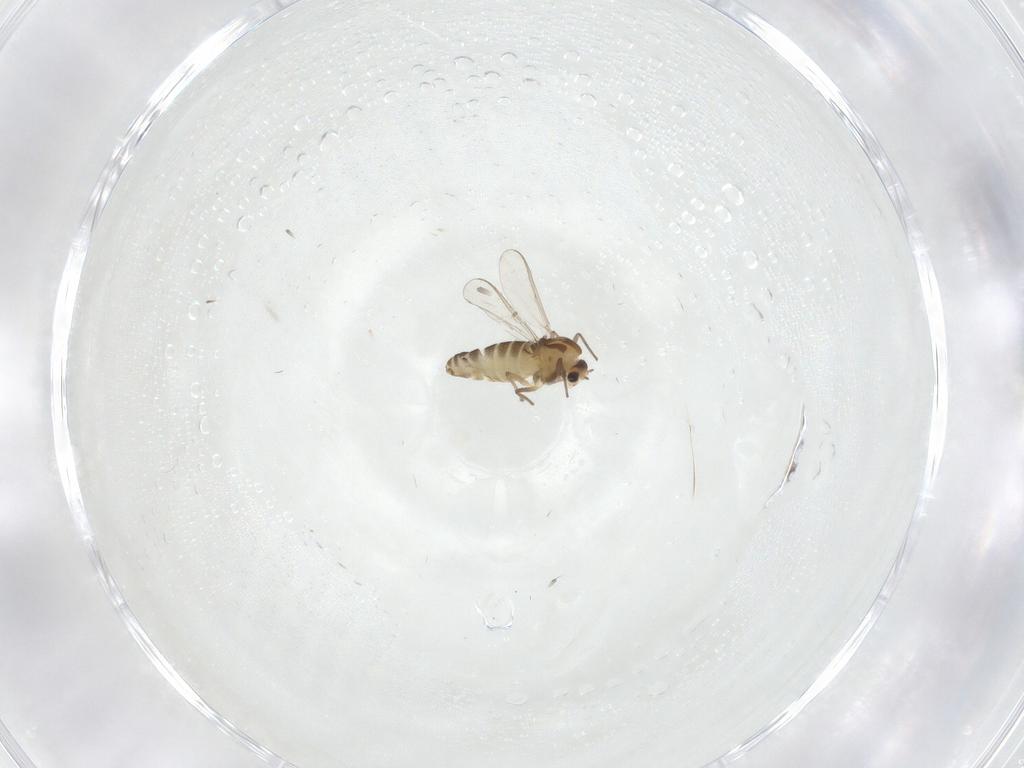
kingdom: Animalia
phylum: Arthropoda
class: Insecta
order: Diptera
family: Chironomidae
